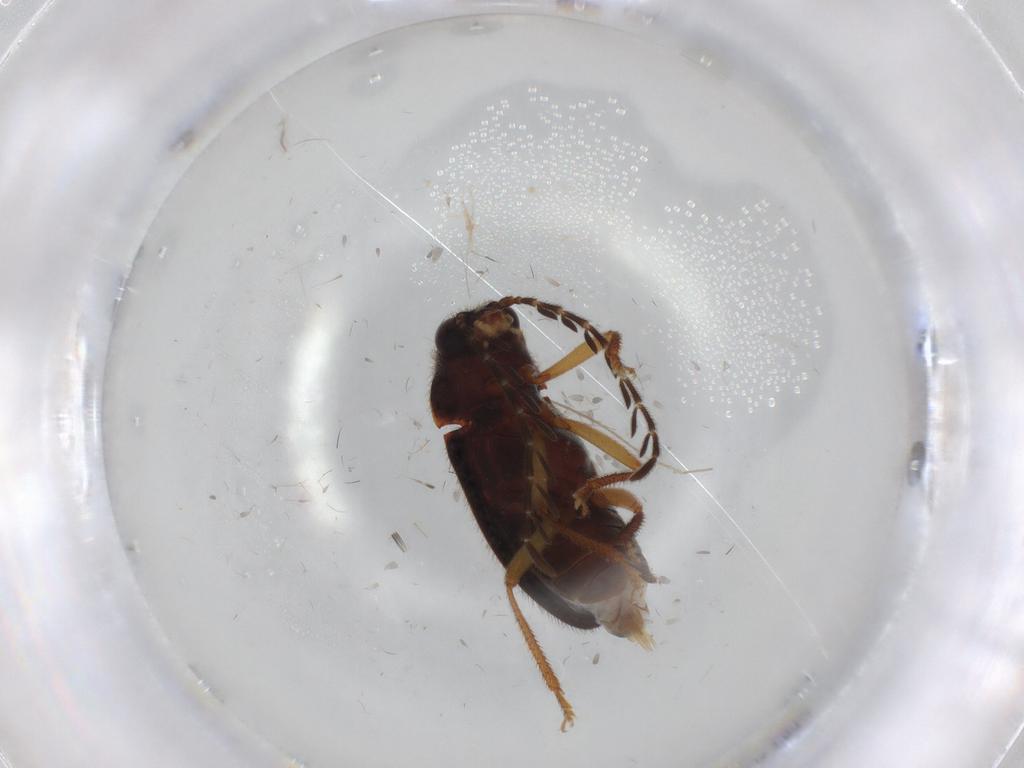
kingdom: Animalia
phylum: Arthropoda
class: Insecta
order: Coleoptera
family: Ptilodactylidae
